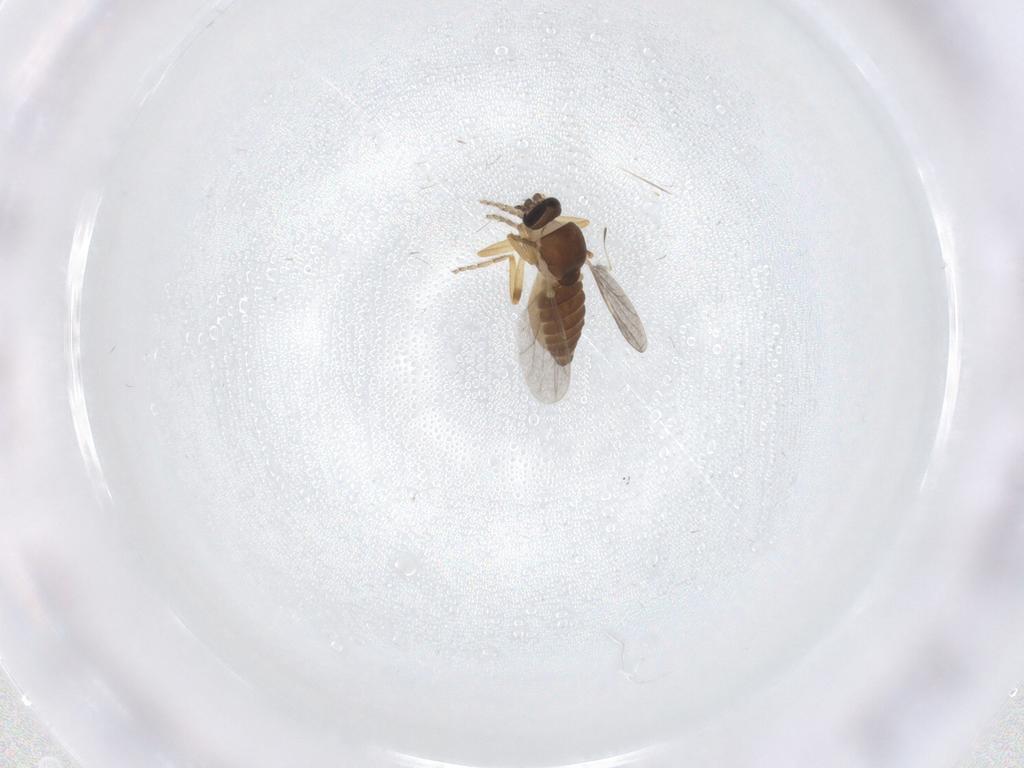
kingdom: Animalia
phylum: Arthropoda
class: Insecta
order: Diptera
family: Ceratopogonidae
